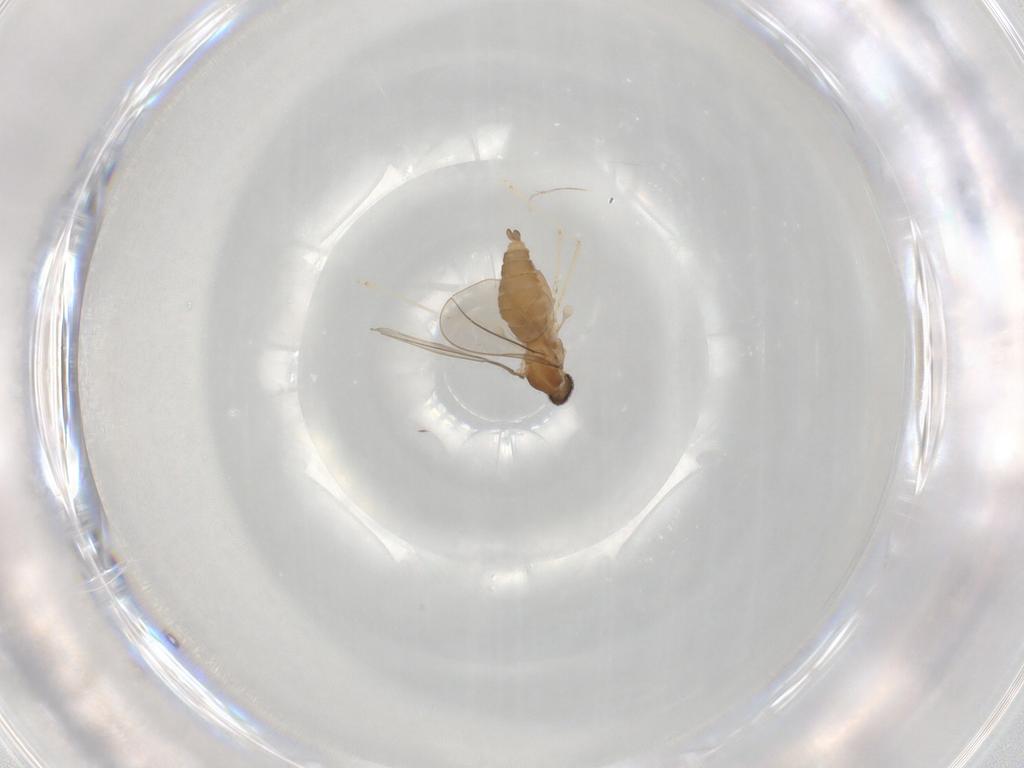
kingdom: Animalia
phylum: Arthropoda
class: Insecta
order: Diptera
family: Cecidomyiidae
